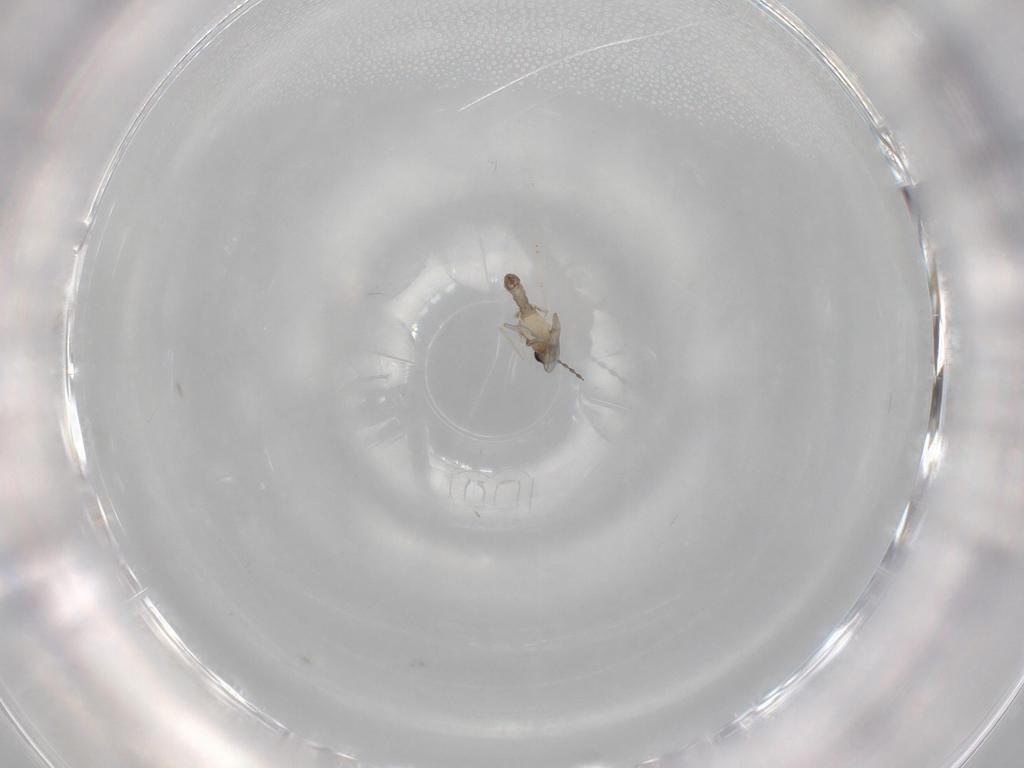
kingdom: Animalia
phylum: Arthropoda
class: Insecta
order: Diptera
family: Cecidomyiidae
